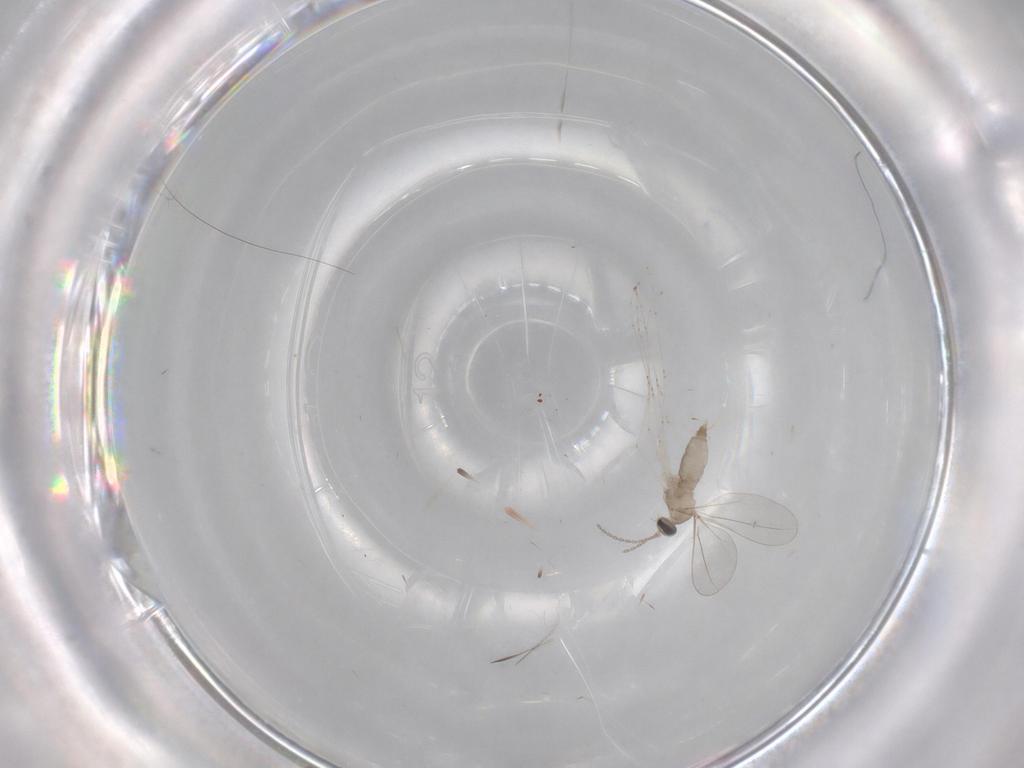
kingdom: Animalia
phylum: Arthropoda
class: Insecta
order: Diptera
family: Cecidomyiidae
